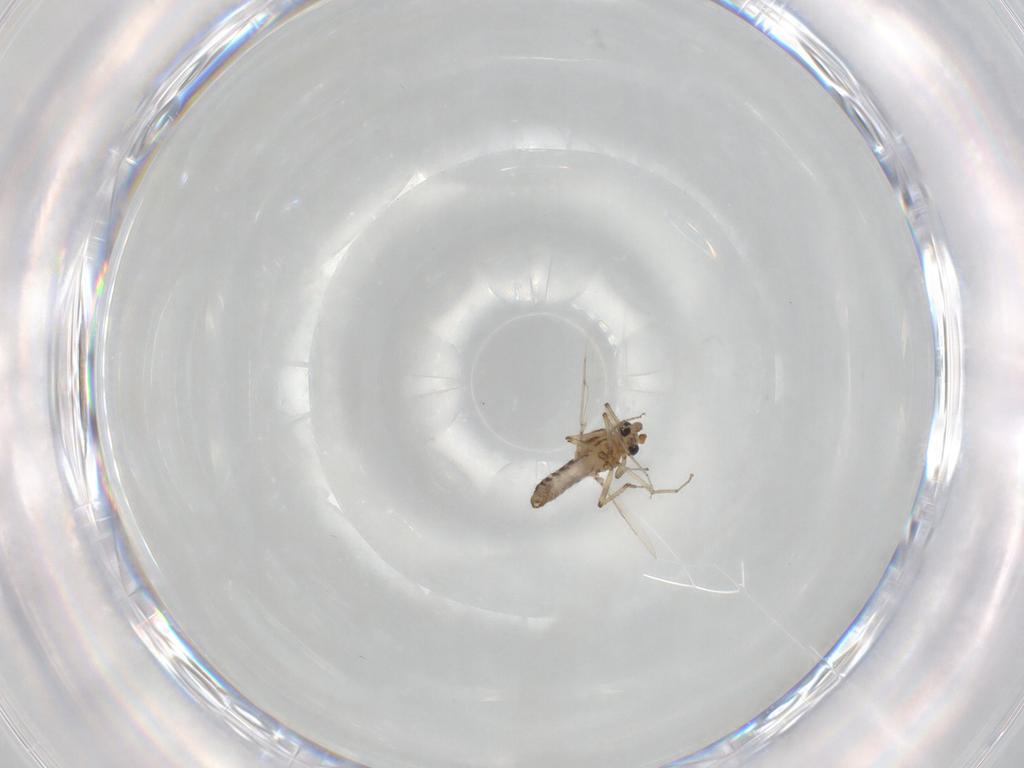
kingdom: Animalia
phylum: Arthropoda
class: Insecta
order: Diptera
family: Ceratopogonidae
